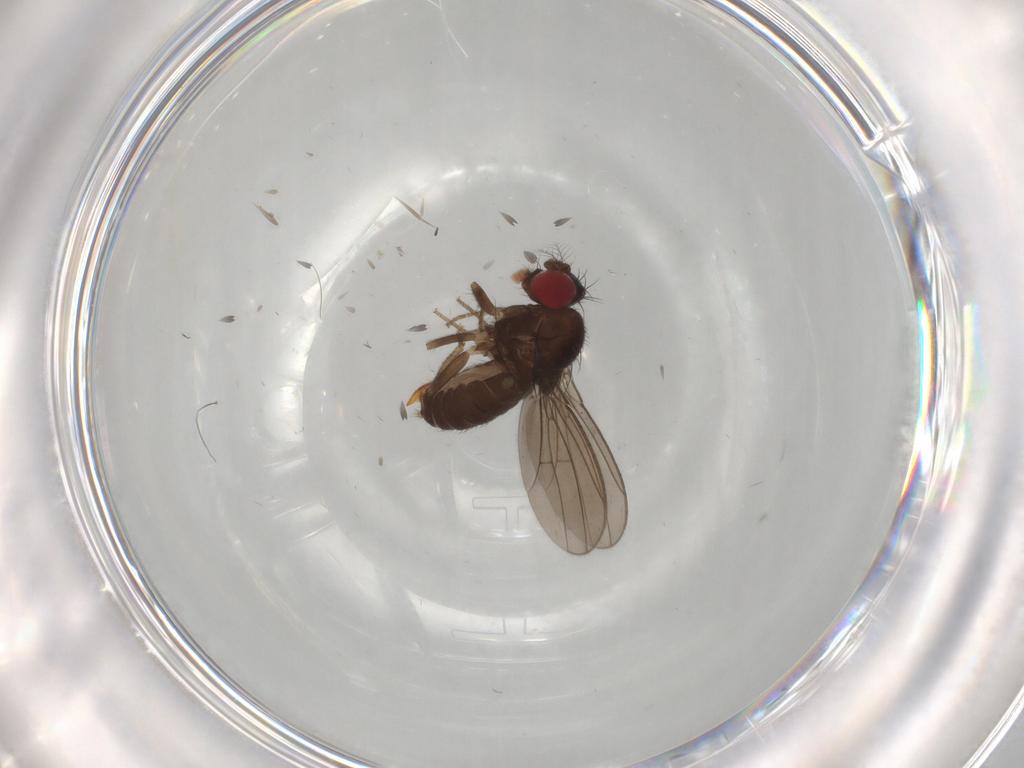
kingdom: Animalia
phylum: Arthropoda
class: Insecta
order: Diptera
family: Drosophilidae
